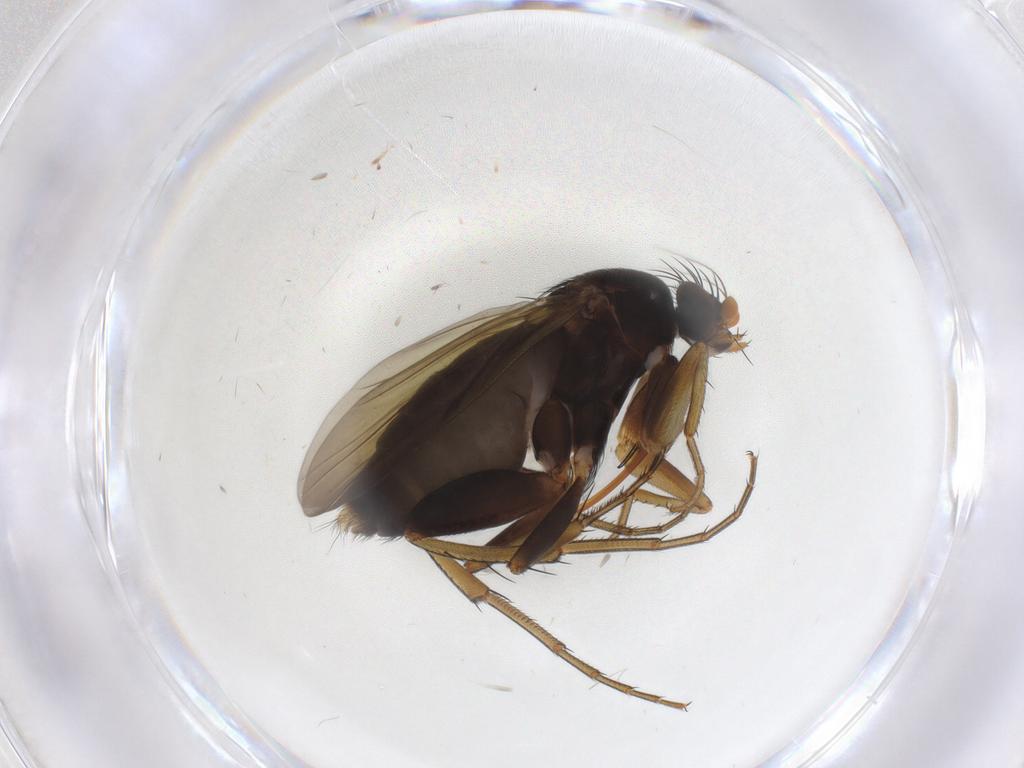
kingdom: Animalia
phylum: Arthropoda
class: Insecta
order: Diptera
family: Phoridae
